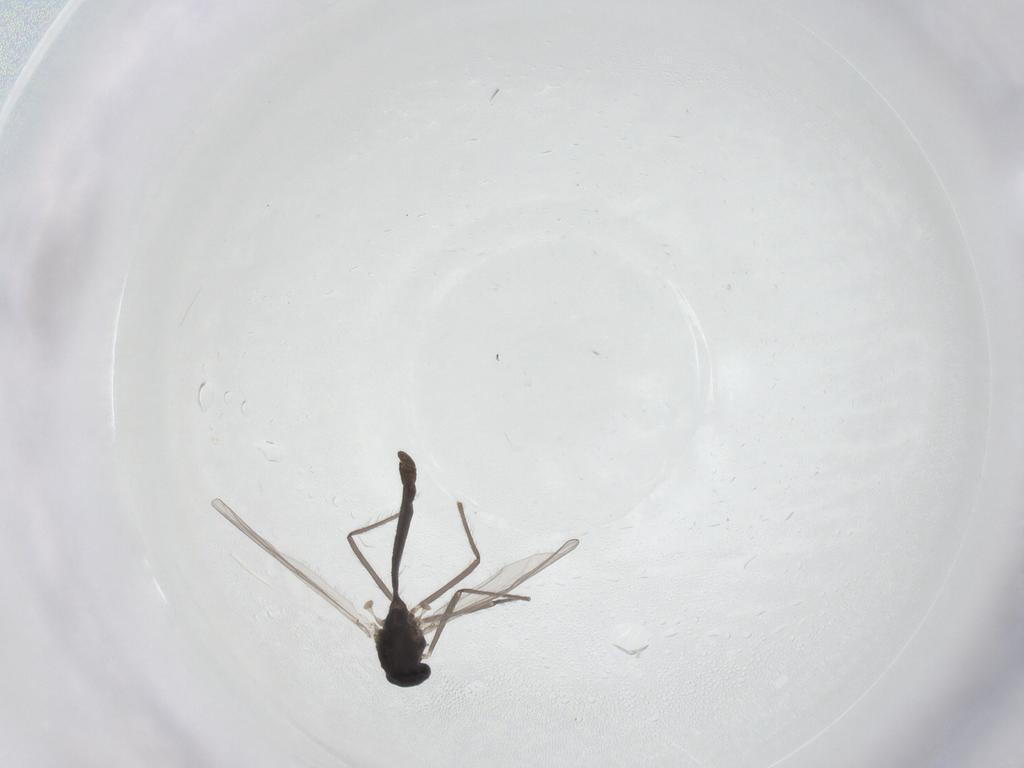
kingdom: Animalia
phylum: Arthropoda
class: Insecta
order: Diptera
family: Chironomidae
